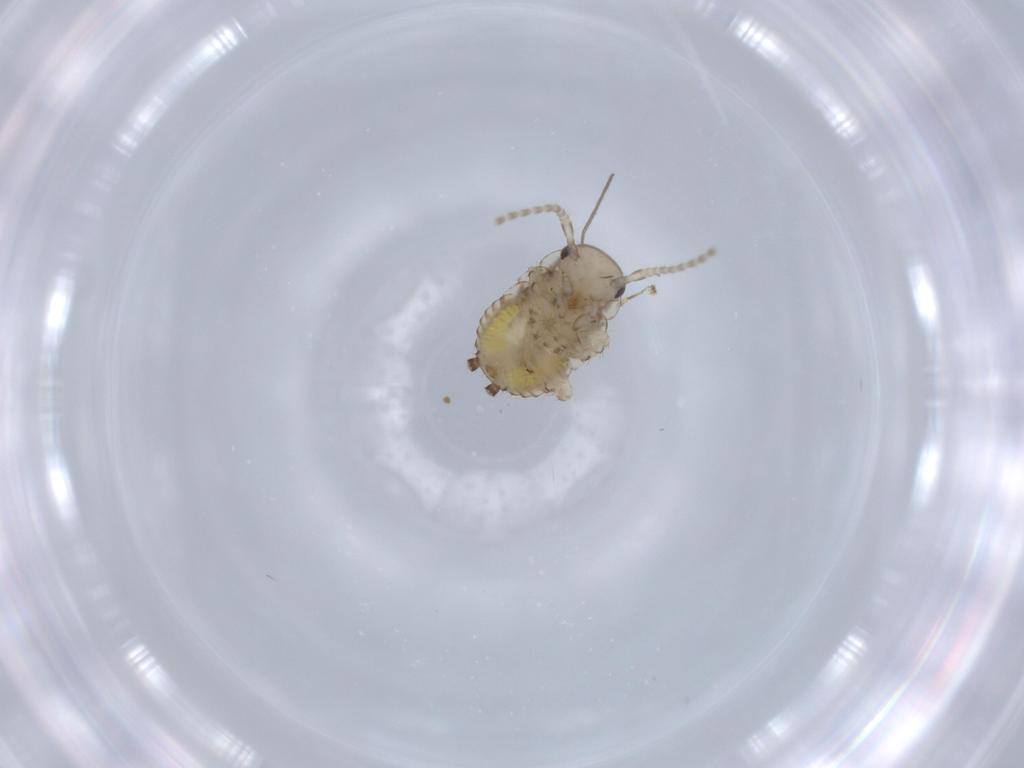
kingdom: Animalia
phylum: Arthropoda
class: Insecta
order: Blattodea
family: Ectobiidae
